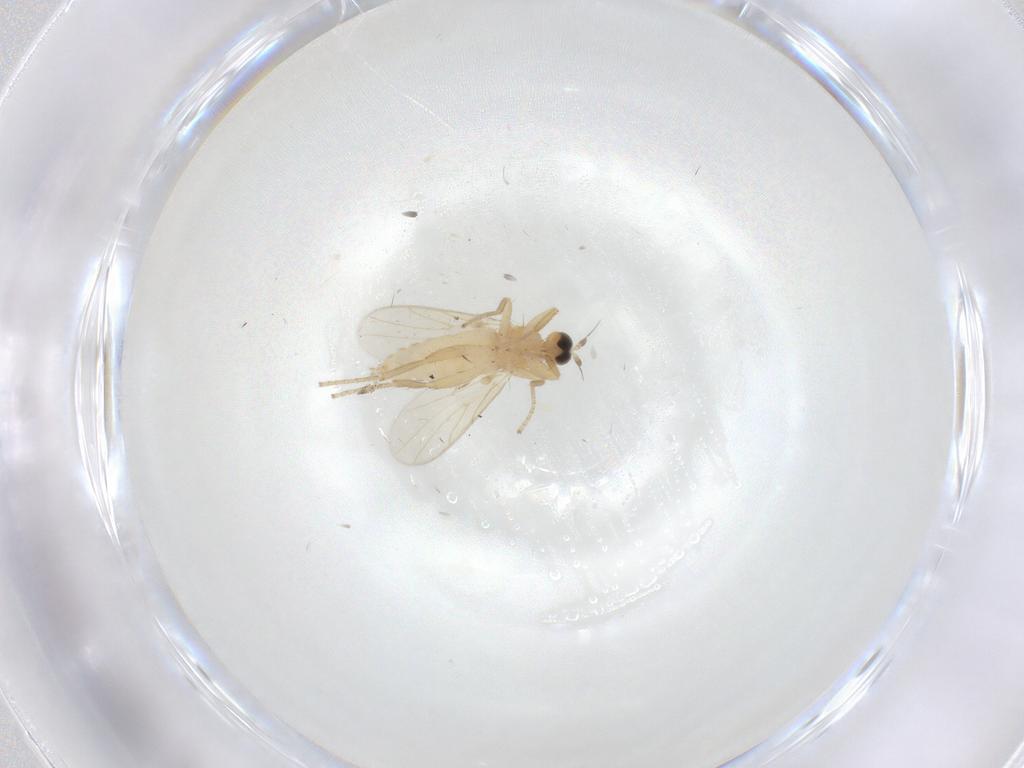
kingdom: Animalia
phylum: Arthropoda
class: Insecta
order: Diptera
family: Hybotidae
